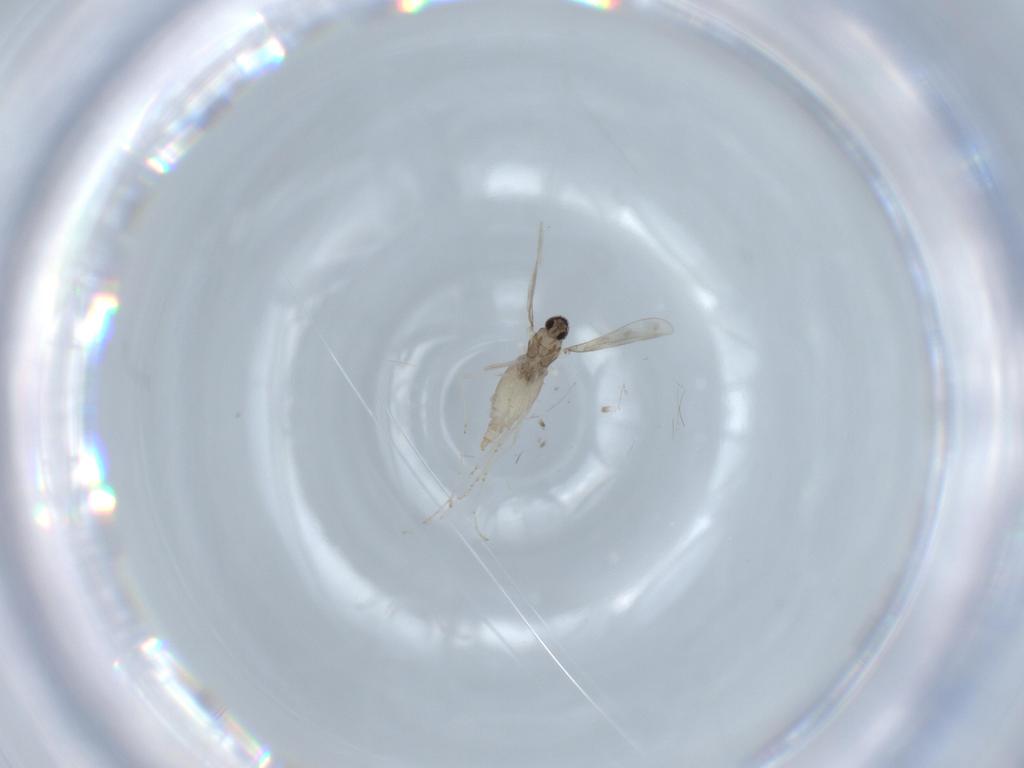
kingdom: Animalia
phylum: Arthropoda
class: Insecta
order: Diptera
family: Cecidomyiidae
